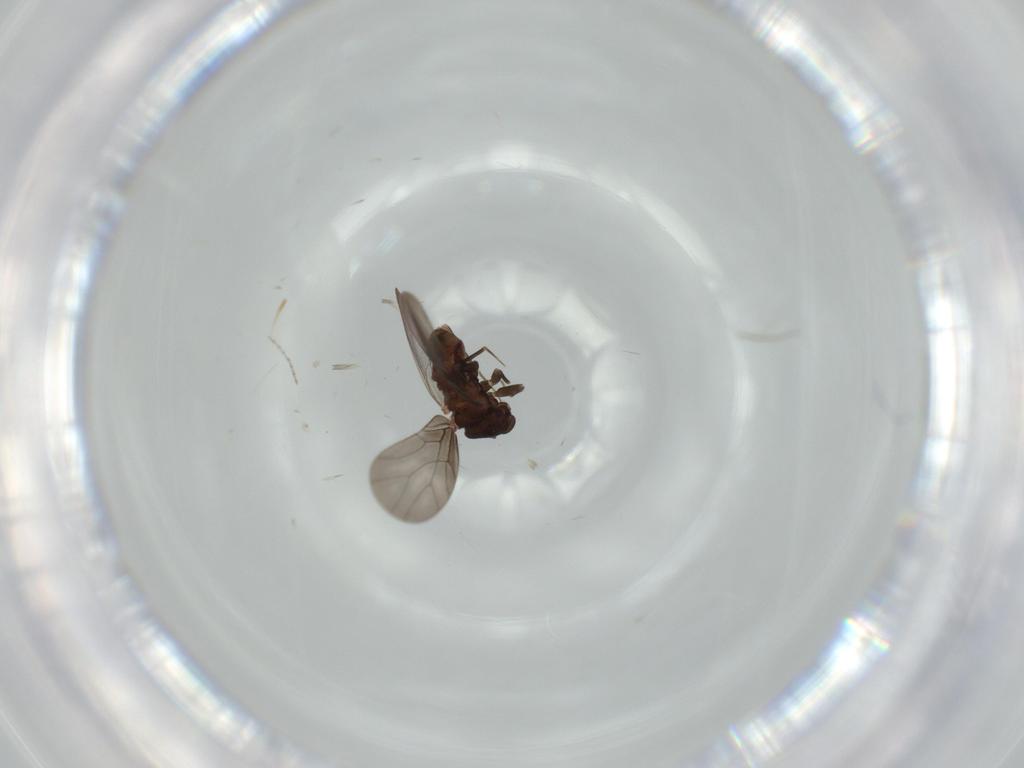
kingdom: Animalia
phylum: Arthropoda
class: Insecta
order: Archaeognatha
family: Machilidae
